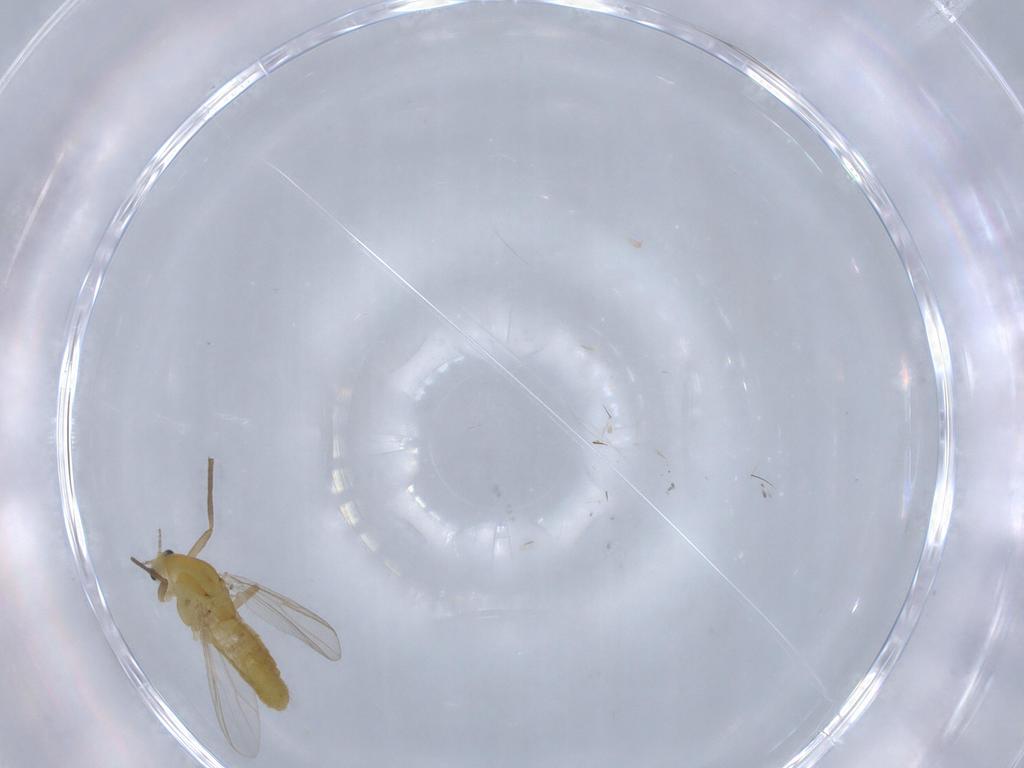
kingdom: Animalia
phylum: Arthropoda
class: Insecta
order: Diptera
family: Chironomidae
